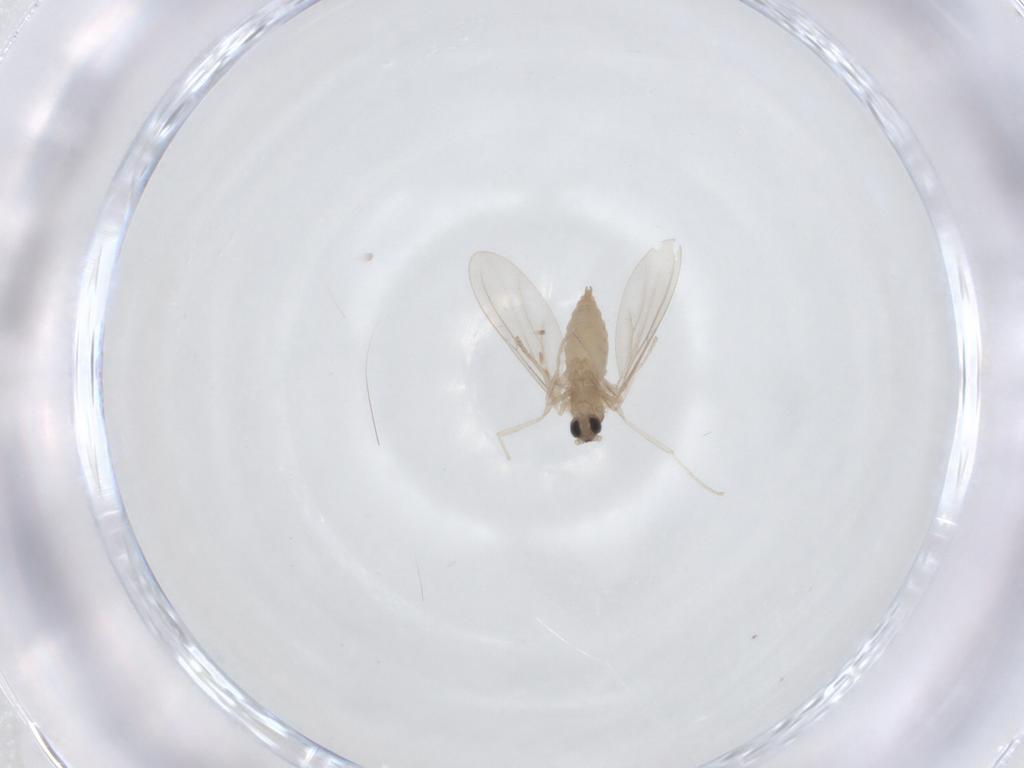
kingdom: Animalia
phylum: Arthropoda
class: Insecta
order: Diptera
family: Cecidomyiidae
